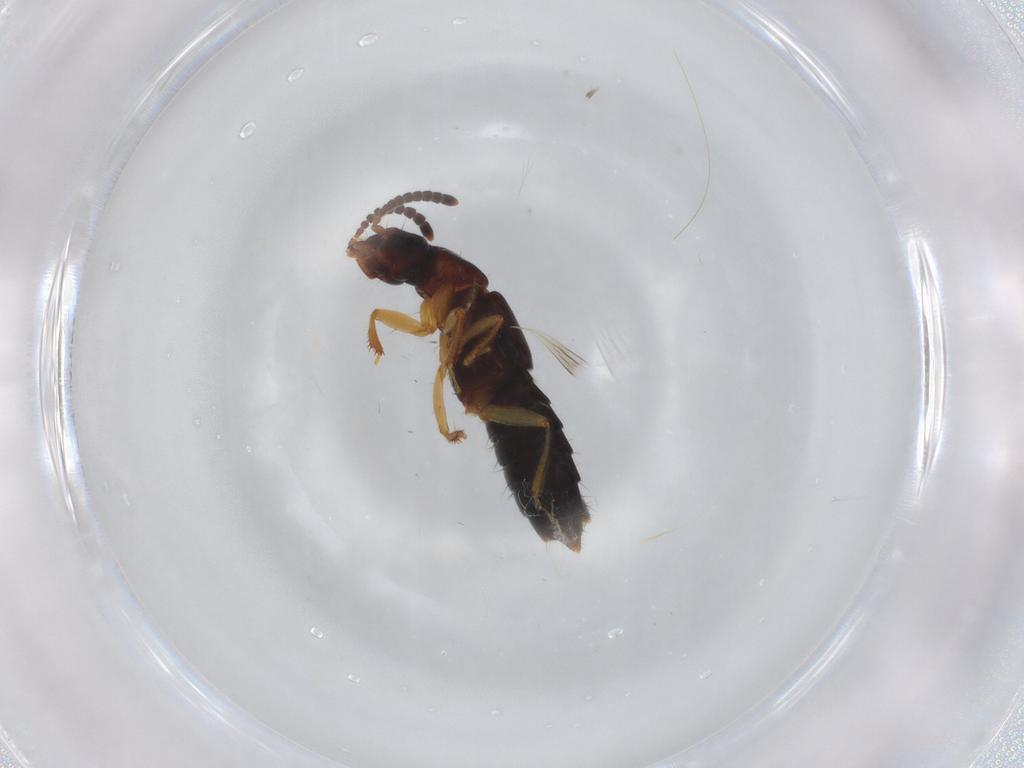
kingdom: Animalia
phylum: Arthropoda
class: Insecta
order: Coleoptera
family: Staphylinidae
